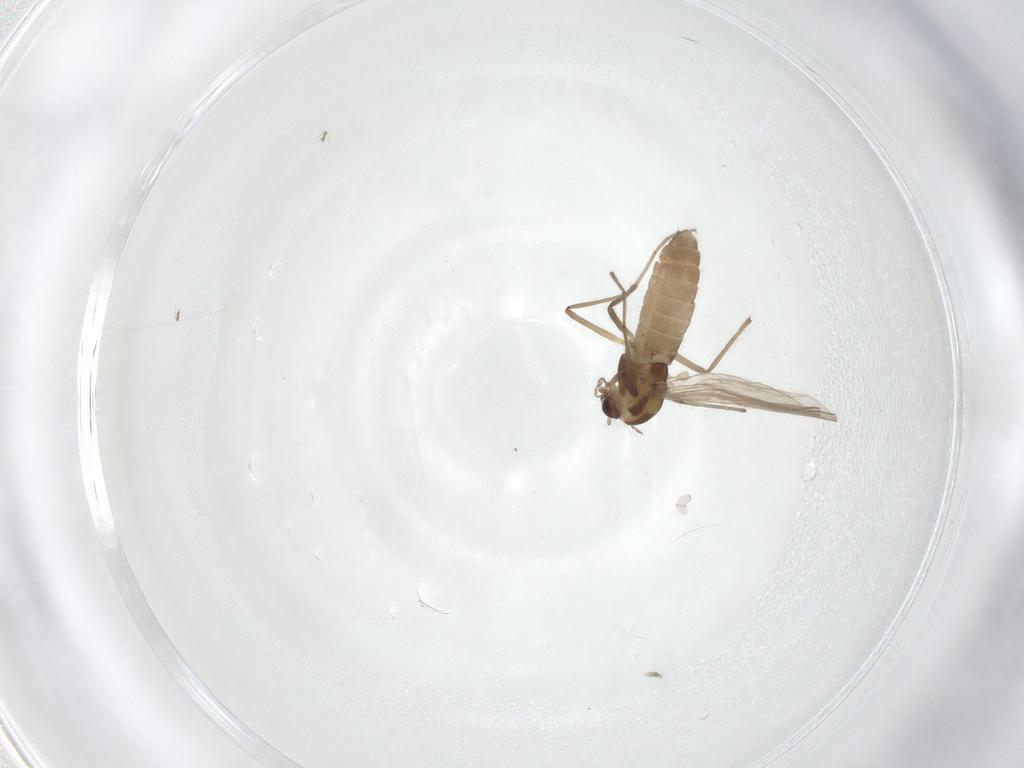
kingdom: Animalia
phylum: Arthropoda
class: Insecta
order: Diptera
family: Chironomidae
